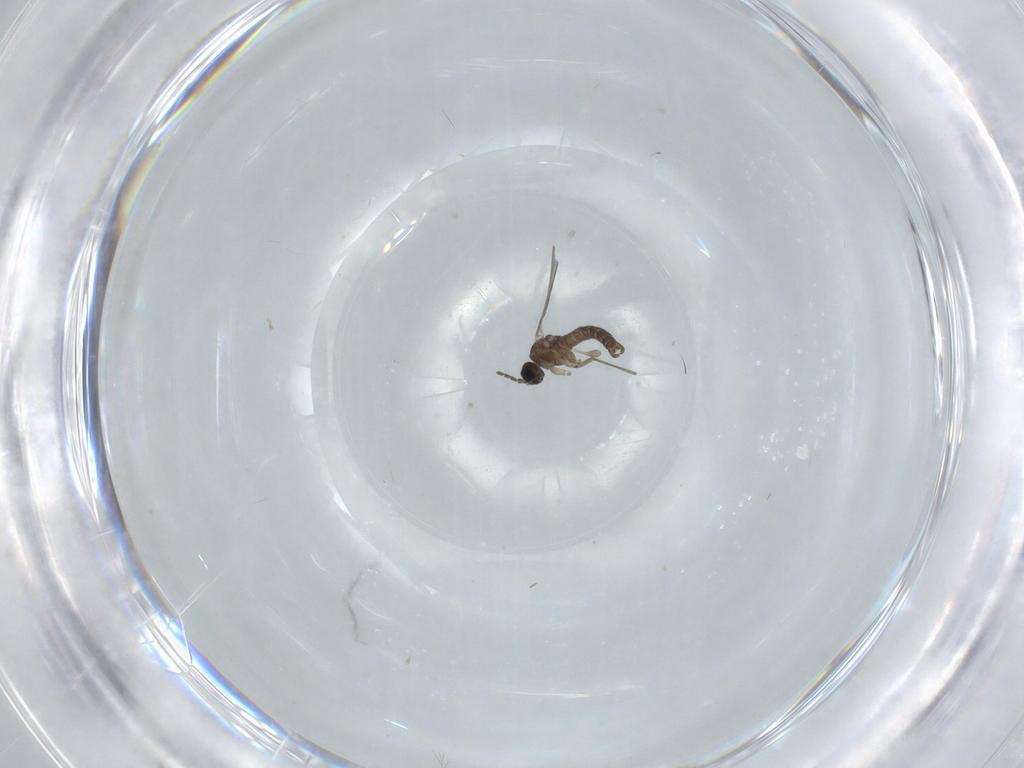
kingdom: Animalia
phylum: Arthropoda
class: Insecta
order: Diptera
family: Sciaridae
